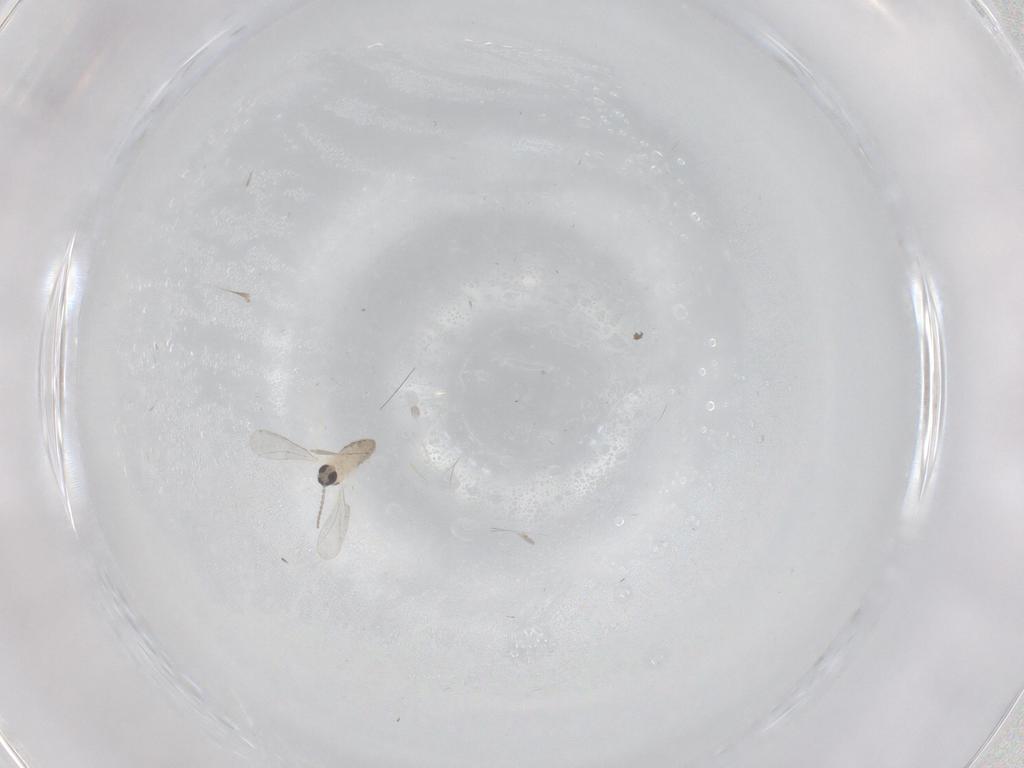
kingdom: Animalia
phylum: Arthropoda
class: Insecta
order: Diptera
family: Cecidomyiidae
